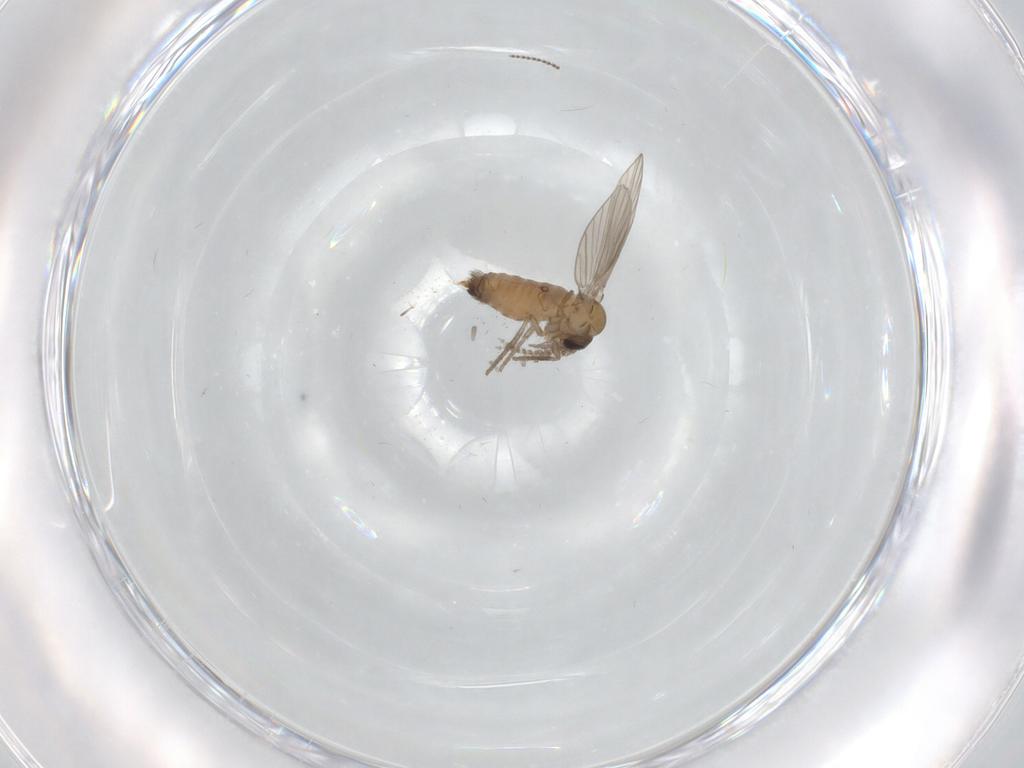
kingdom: Animalia
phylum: Arthropoda
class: Insecta
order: Diptera
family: Psychodidae
